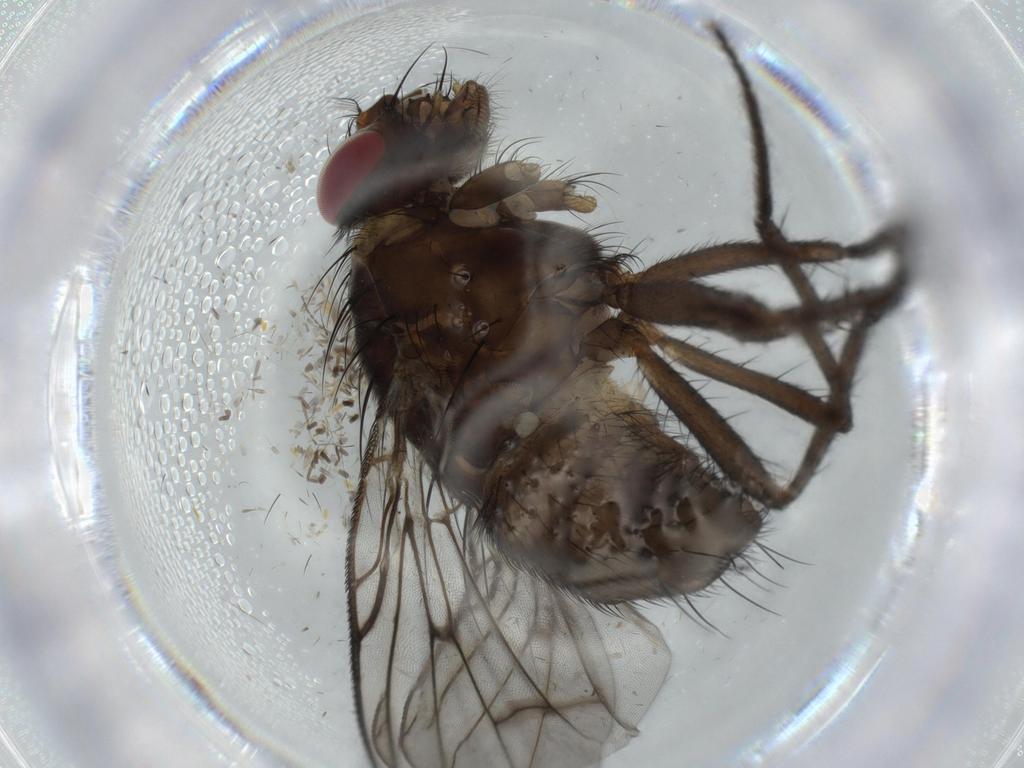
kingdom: Animalia
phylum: Arthropoda
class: Insecta
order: Diptera
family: Muscidae
